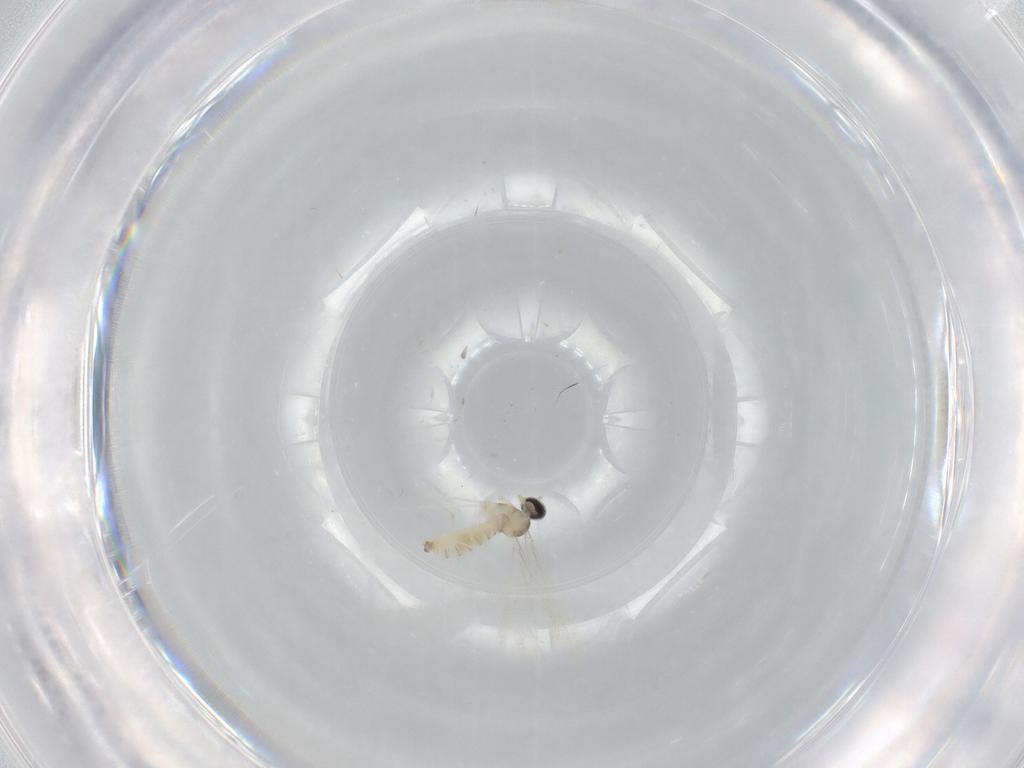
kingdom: Animalia
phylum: Arthropoda
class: Insecta
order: Diptera
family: Cecidomyiidae
